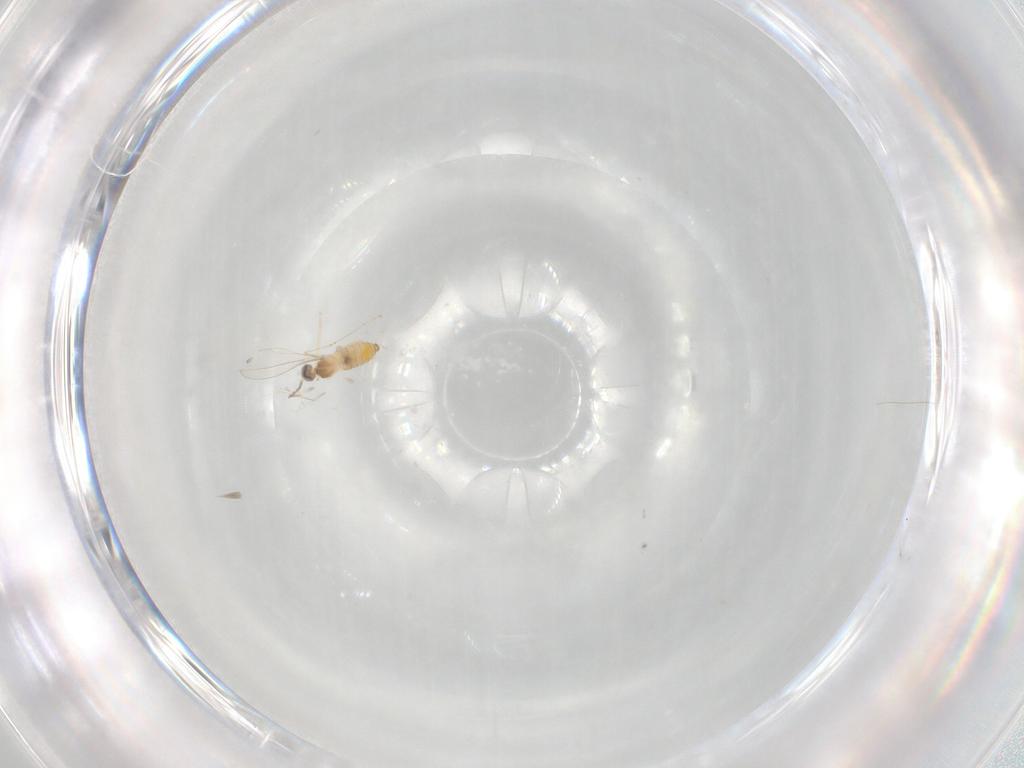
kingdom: Animalia
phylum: Arthropoda
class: Insecta
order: Diptera
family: Cecidomyiidae
